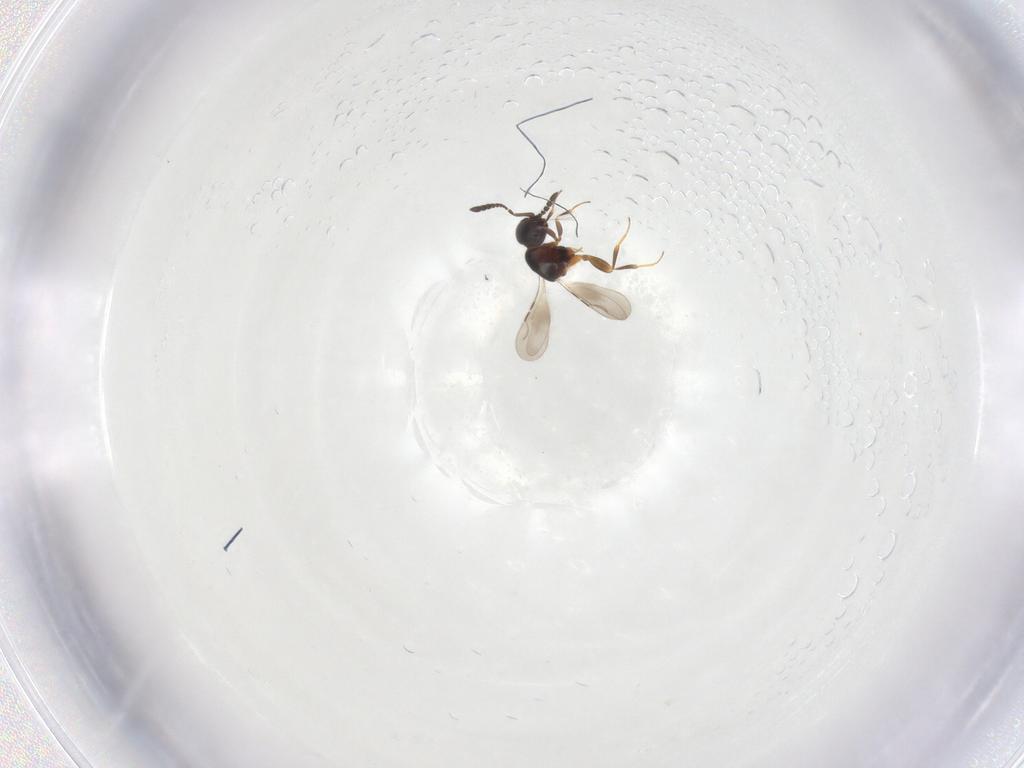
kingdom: Animalia
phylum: Arthropoda
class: Insecta
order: Hymenoptera
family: Ceraphronidae
